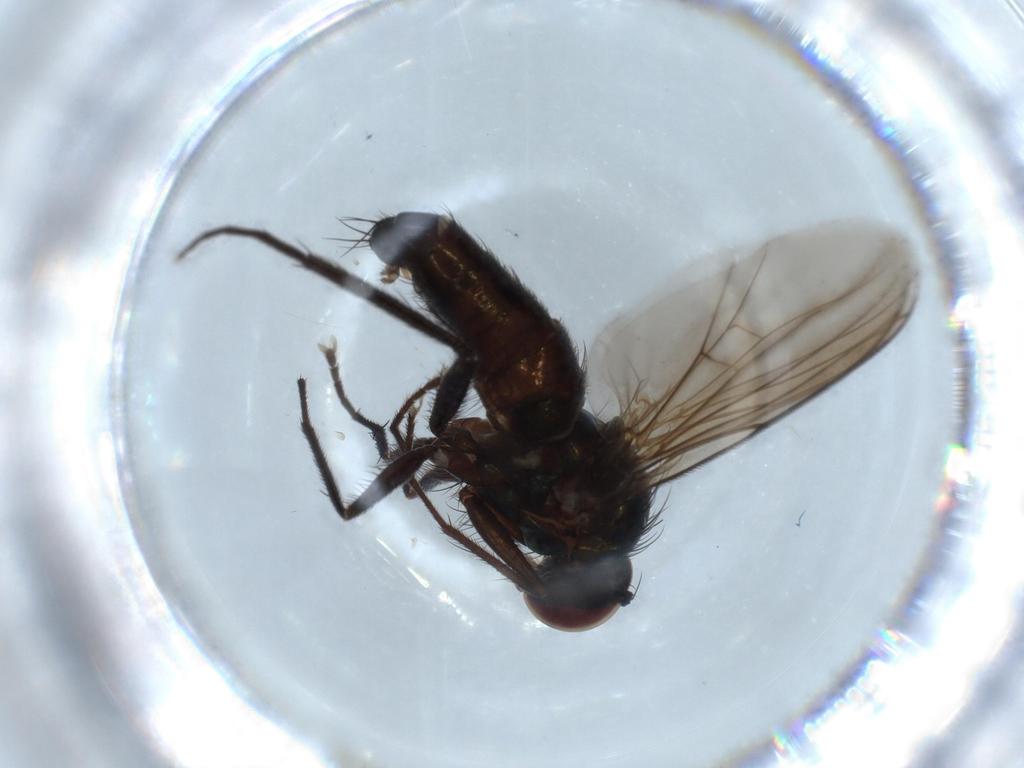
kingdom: Animalia
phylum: Arthropoda
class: Insecta
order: Diptera
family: Dolichopodidae
